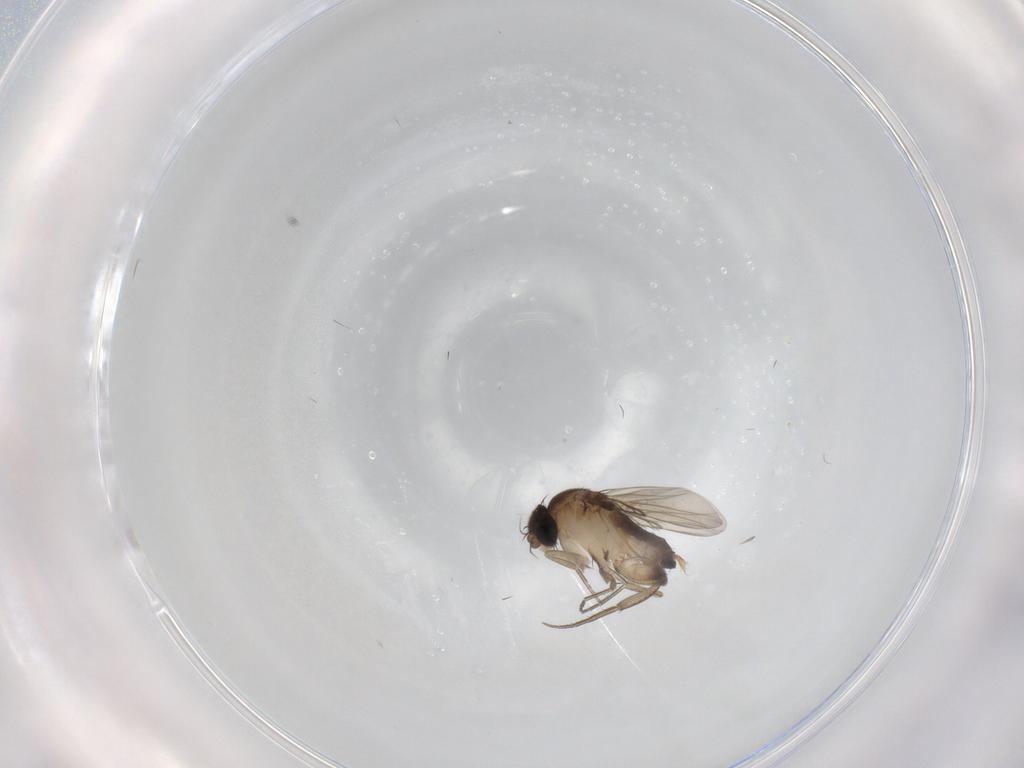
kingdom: Animalia
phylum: Arthropoda
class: Insecta
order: Diptera
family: Phoridae
